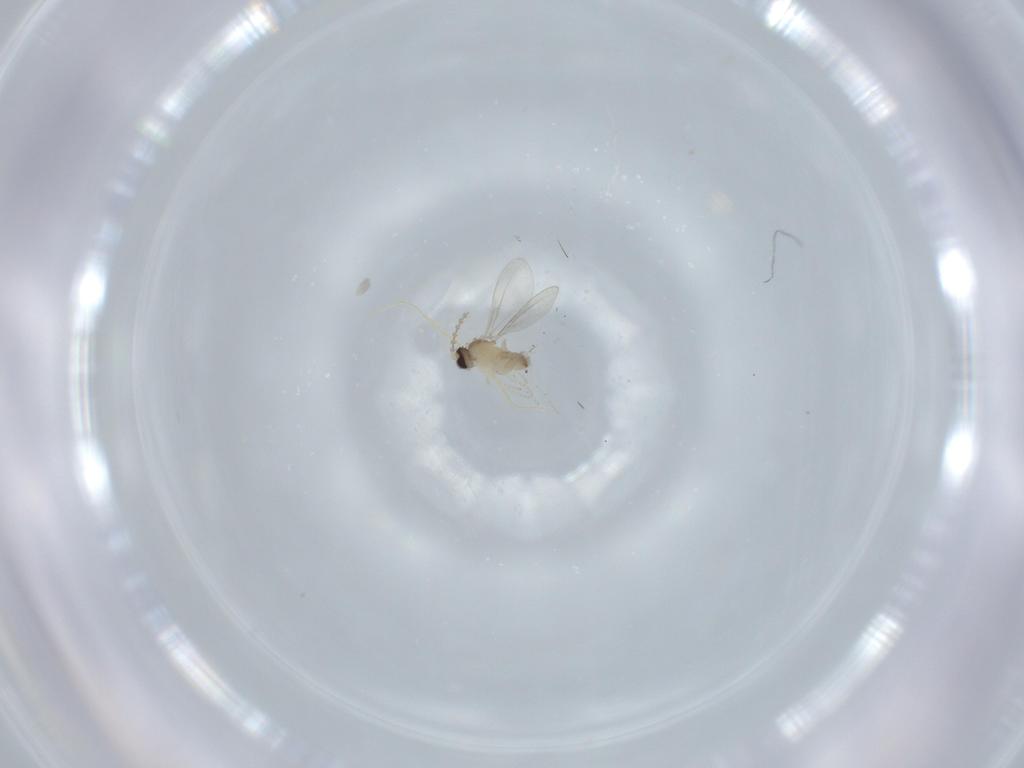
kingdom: Animalia
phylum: Arthropoda
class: Insecta
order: Diptera
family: Cecidomyiidae
